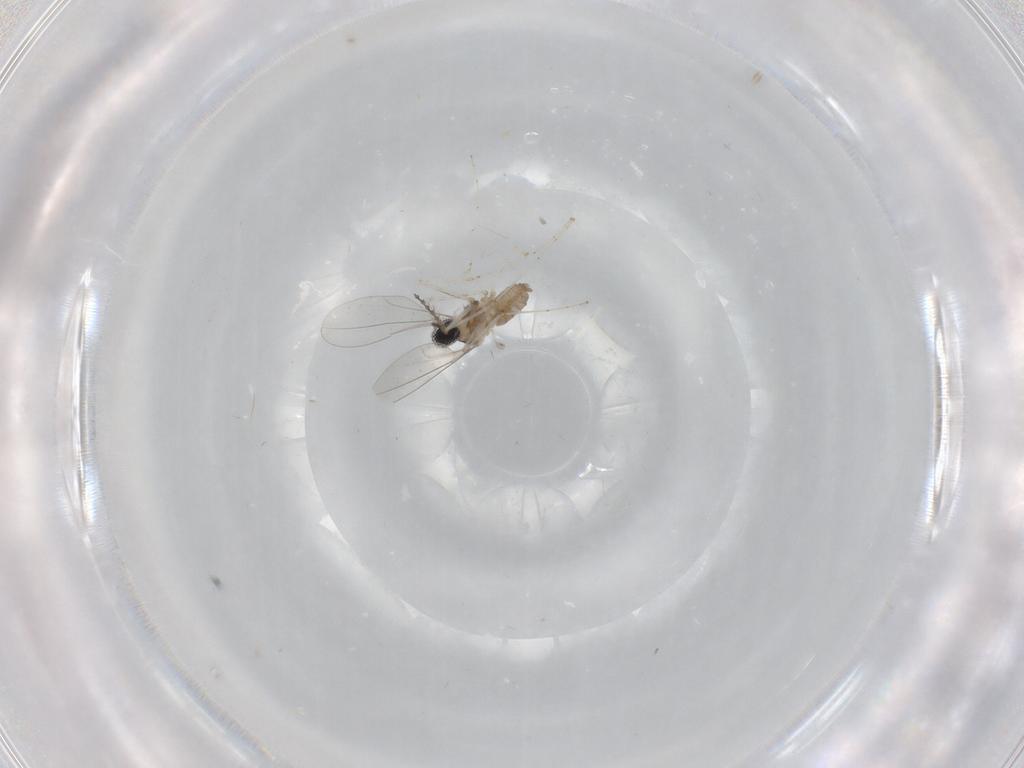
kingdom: Animalia
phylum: Arthropoda
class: Insecta
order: Diptera
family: Cecidomyiidae
